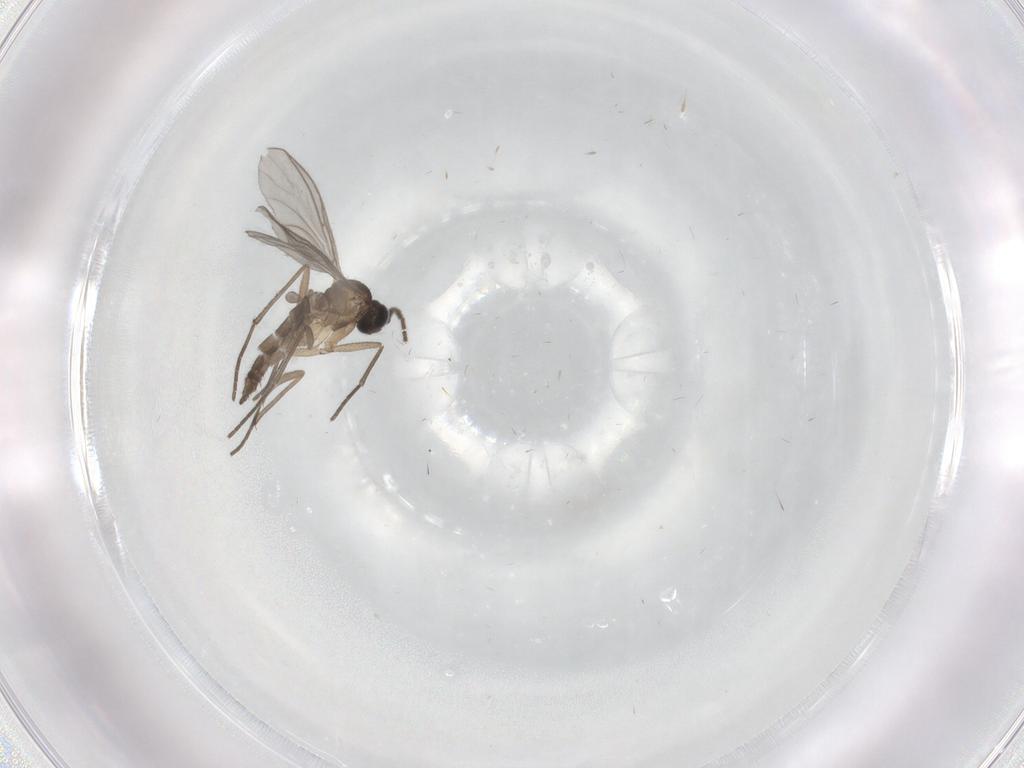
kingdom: Animalia
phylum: Arthropoda
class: Insecta
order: Diptera
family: Sciaridae
